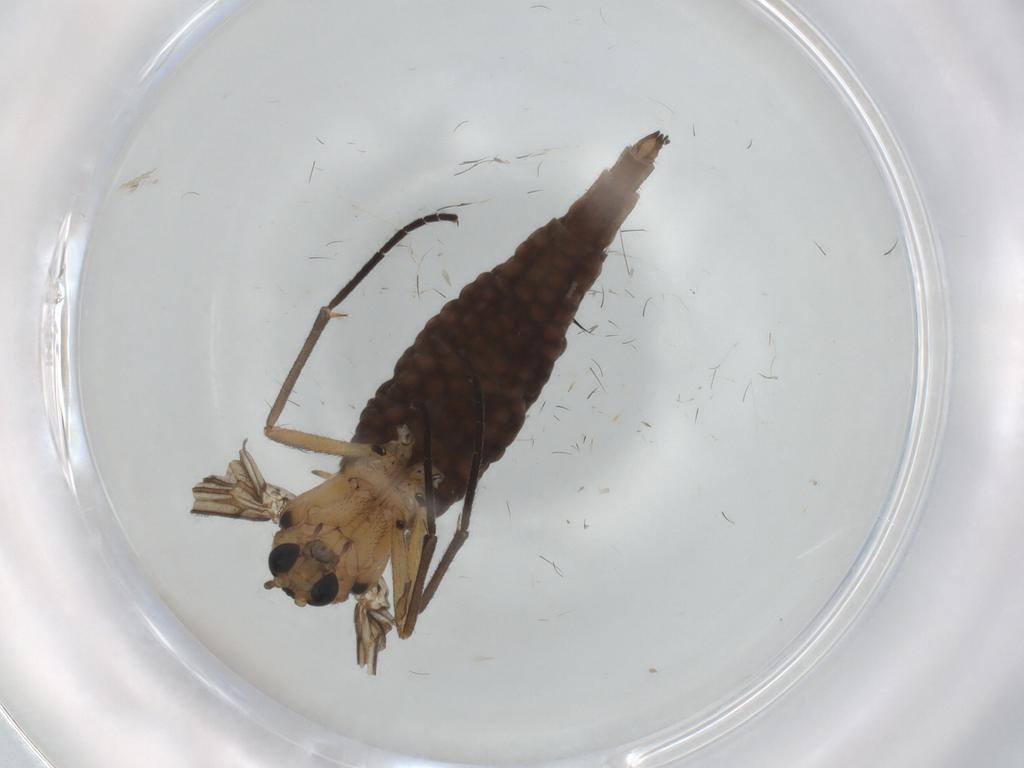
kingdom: Animalia
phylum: Arthropoda
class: Insecta
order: Diptera
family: Sciaridae
